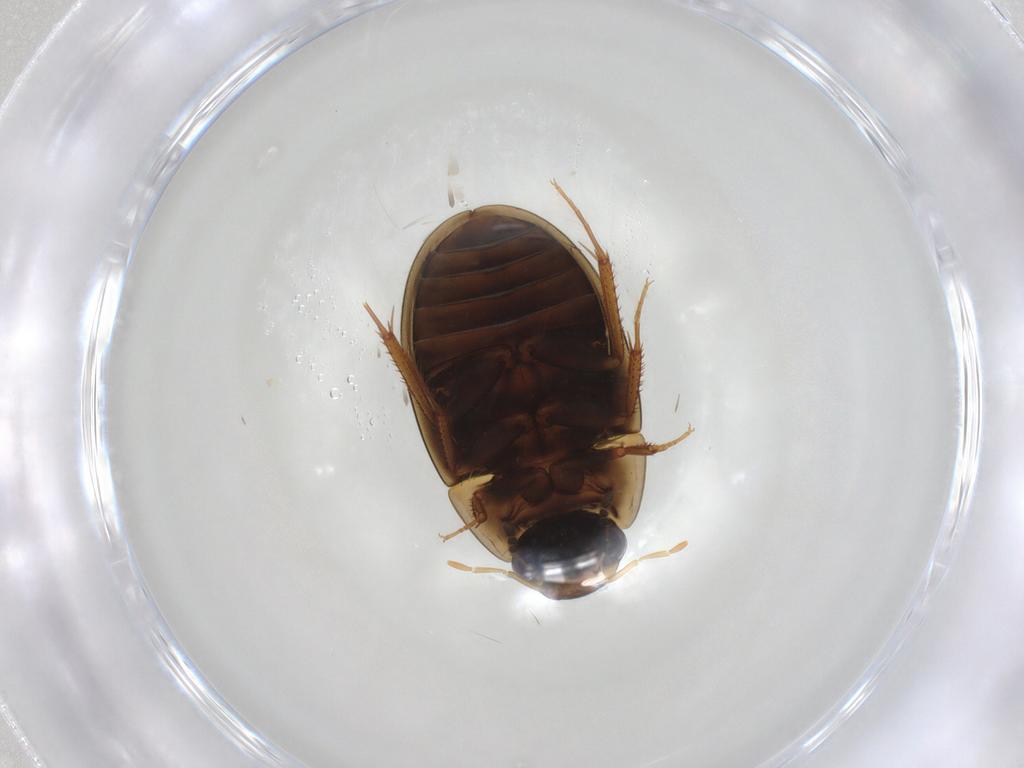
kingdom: Animalia
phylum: Arthropoda
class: Insecta
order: Coleoptera
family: Hydrophilidae
